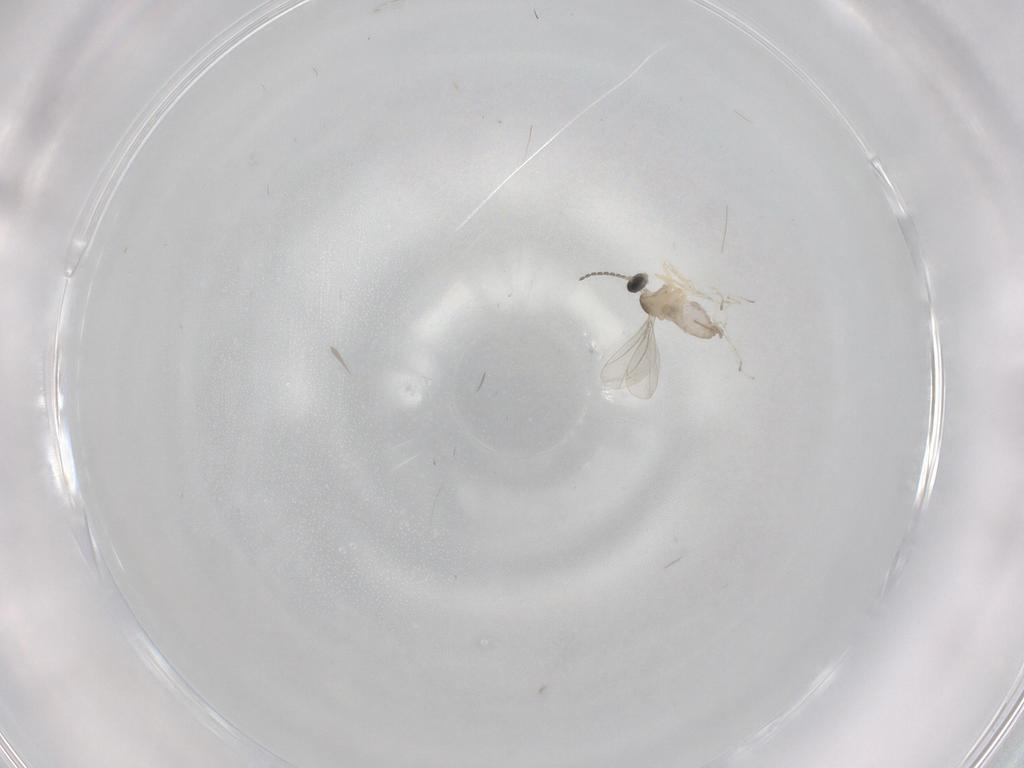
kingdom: Animalia
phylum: Arthropoda
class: Insecta
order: Diptera
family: Cecidomyiidae
